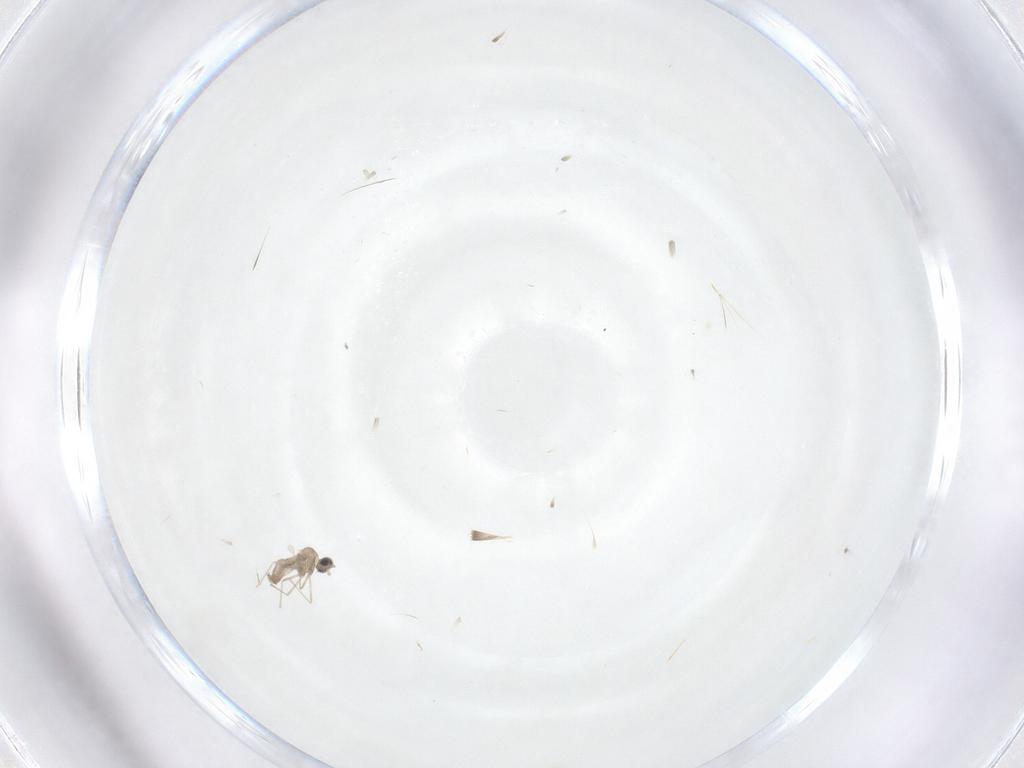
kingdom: Animalia
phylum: Arthropoda
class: Insecta
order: Diptera
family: Cecidomyiidae
